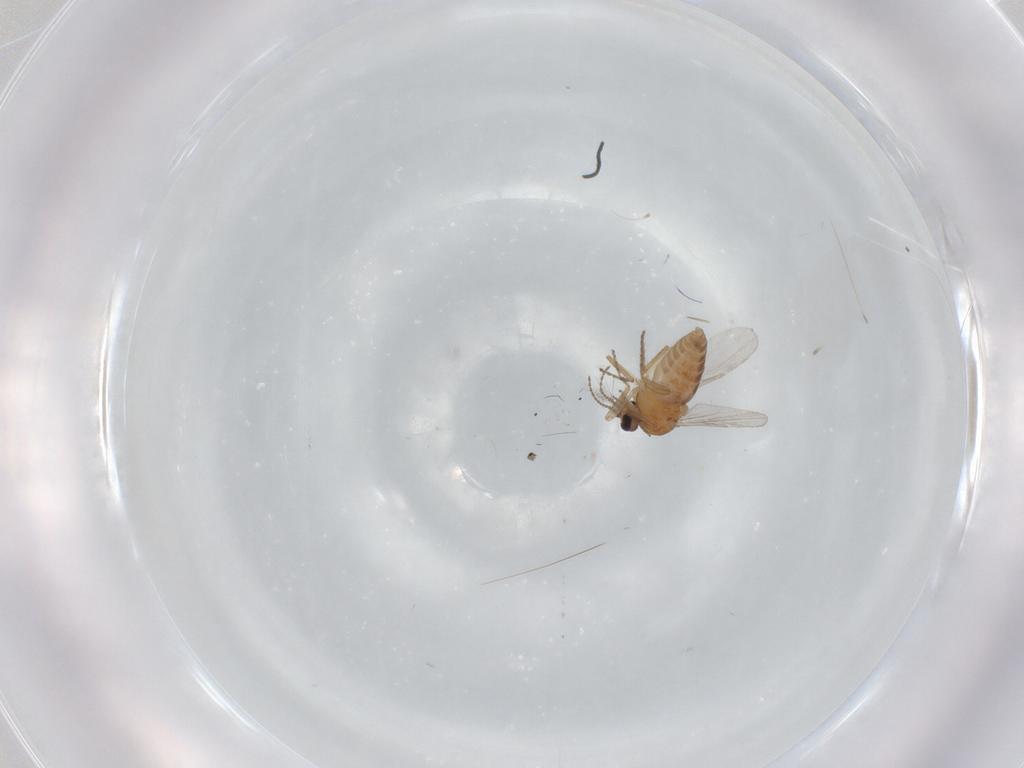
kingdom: Animalia
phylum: Arthropoda
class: Insecta
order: Diptera
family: Ceratopogonidae
